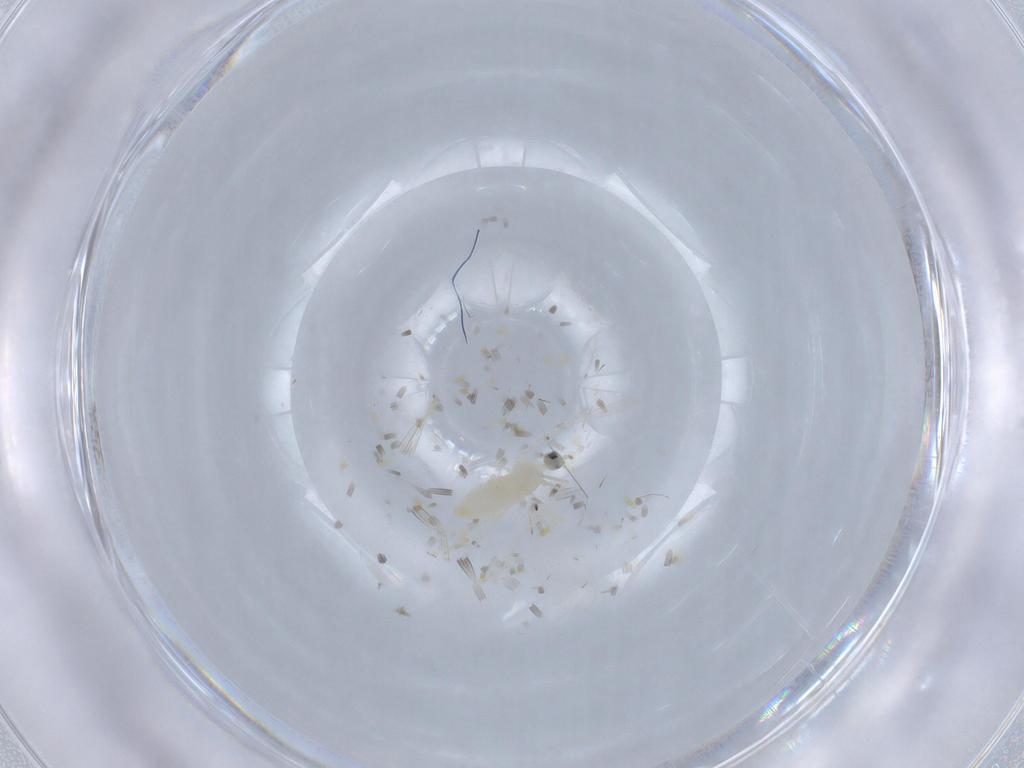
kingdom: Animalia
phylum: Arthropoda
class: Insecta
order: Diptera
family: Cecidomyiidae
